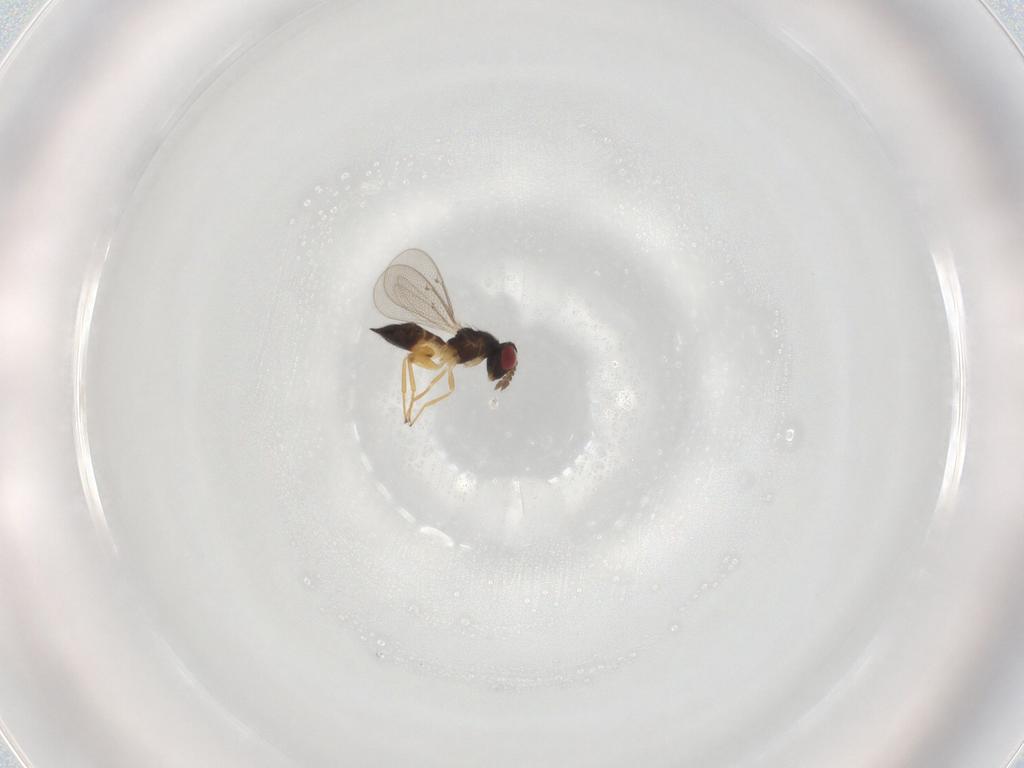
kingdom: Animalia
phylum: Arthropoda
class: Insecta
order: Hymenoptera
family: Eulophidae
